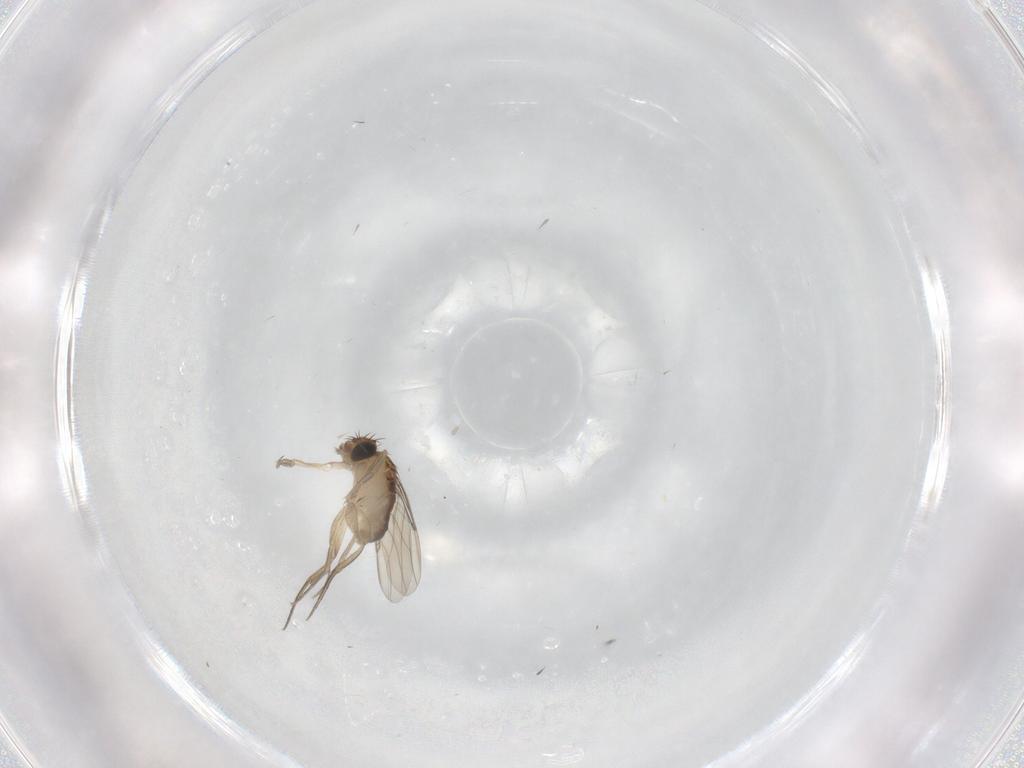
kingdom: Animalia
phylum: Arthropoda
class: Insecta
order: Diptera
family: Phoridae
